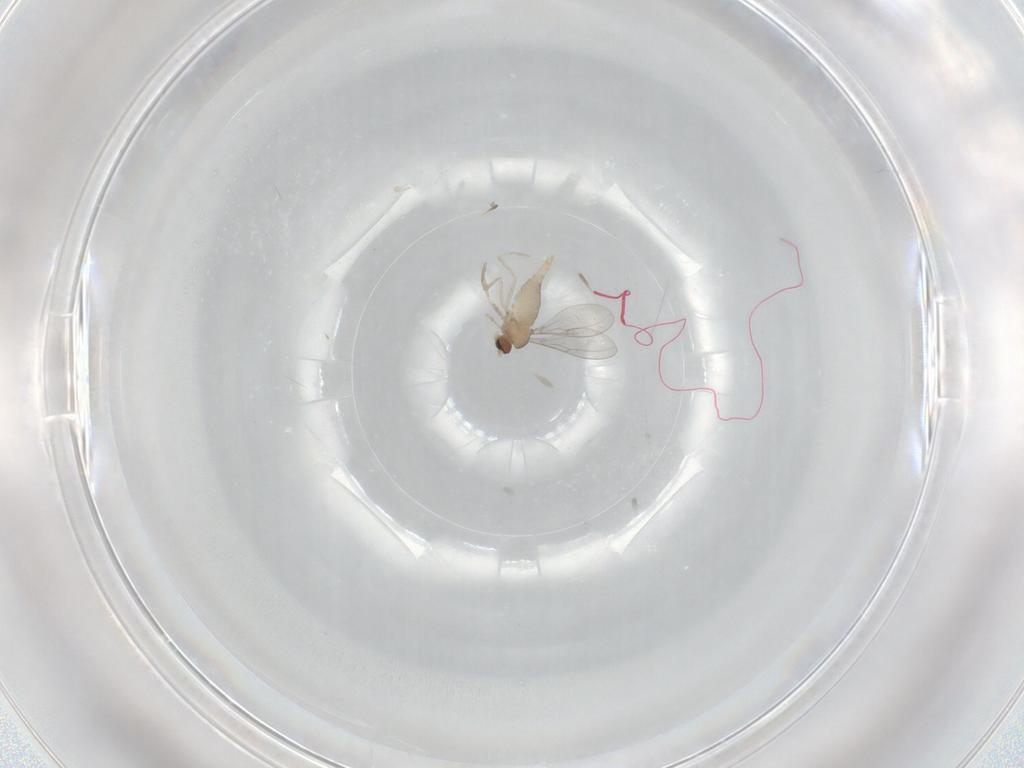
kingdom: Animalia
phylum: Arthropoda
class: Insecta
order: Diptera
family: Cecidomyiidae
